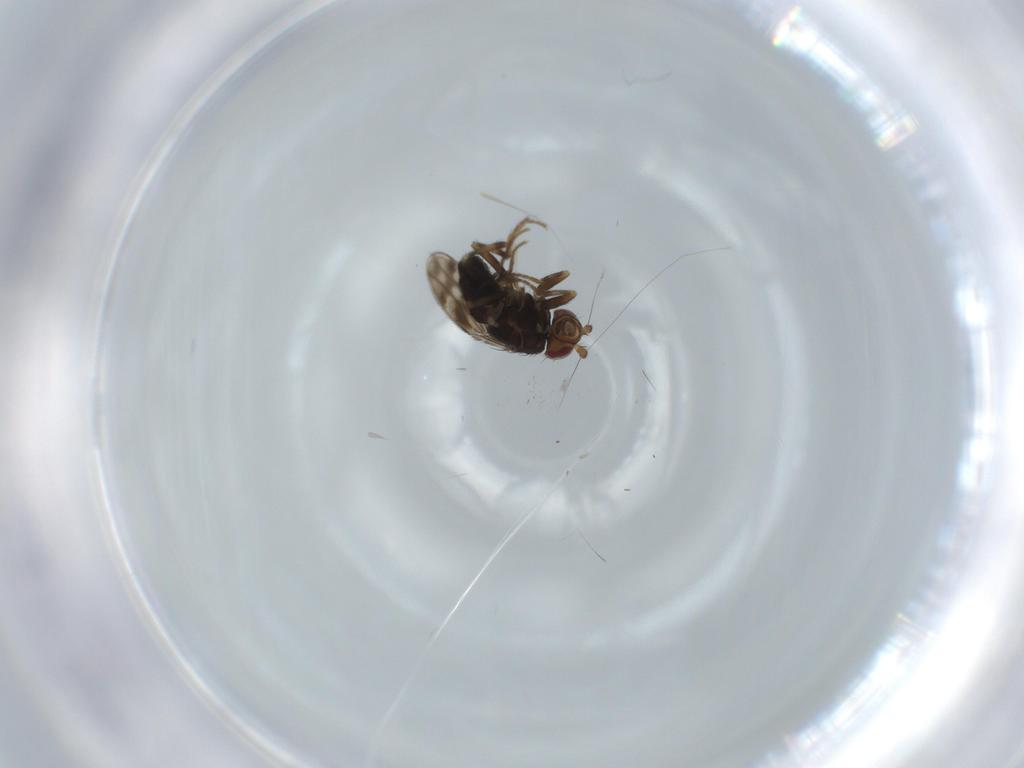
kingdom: Animalia
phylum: Arthropoda
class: Insecta
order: Diptera
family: Sphaeroceridae
